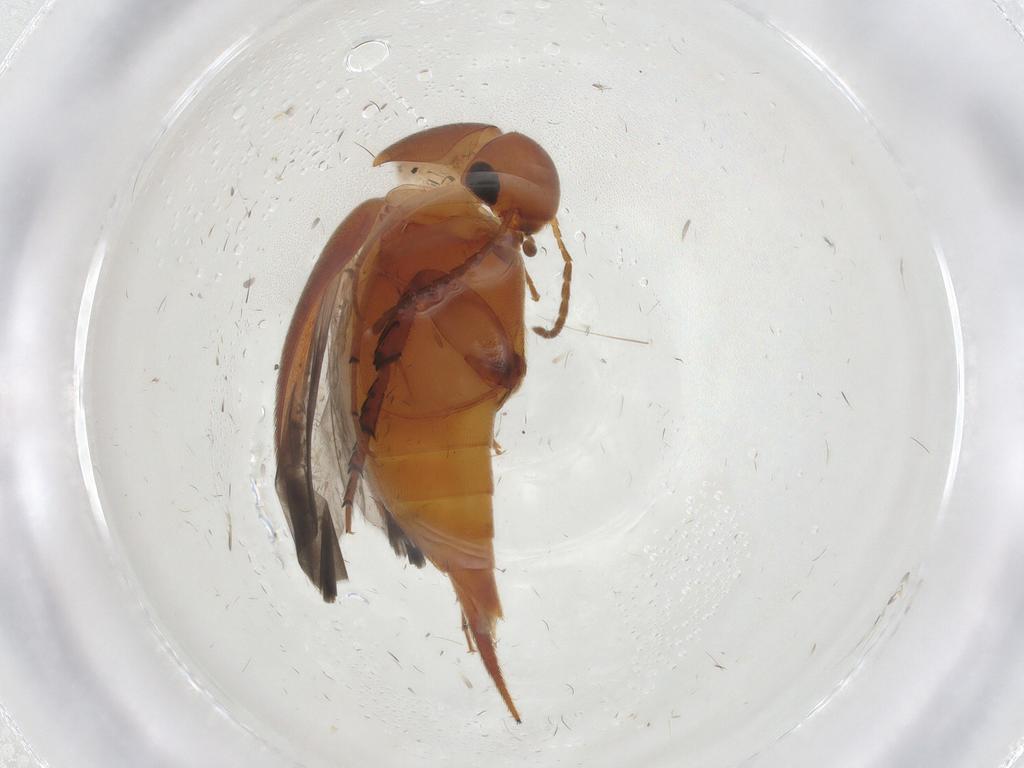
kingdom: Animalia
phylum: Arthropoda
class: Insecta
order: Coleoptera
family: Mordellidae
